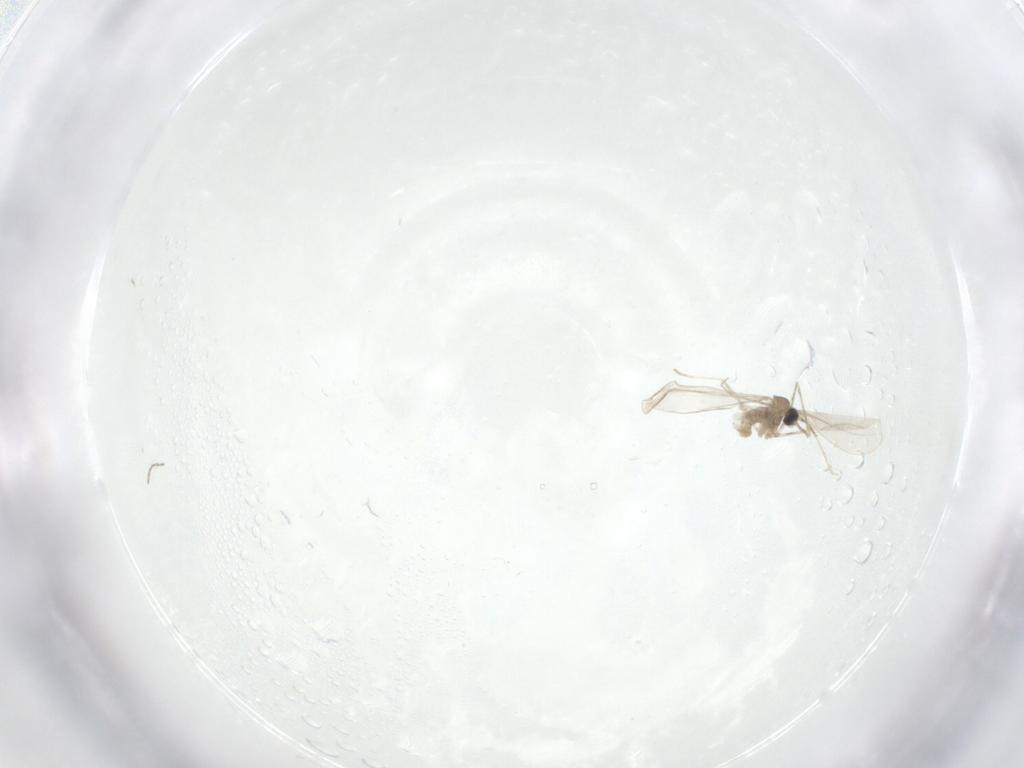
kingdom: Animalia
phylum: Arthropoda
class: Insecta
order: Diptera
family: Cecidomyiidae
